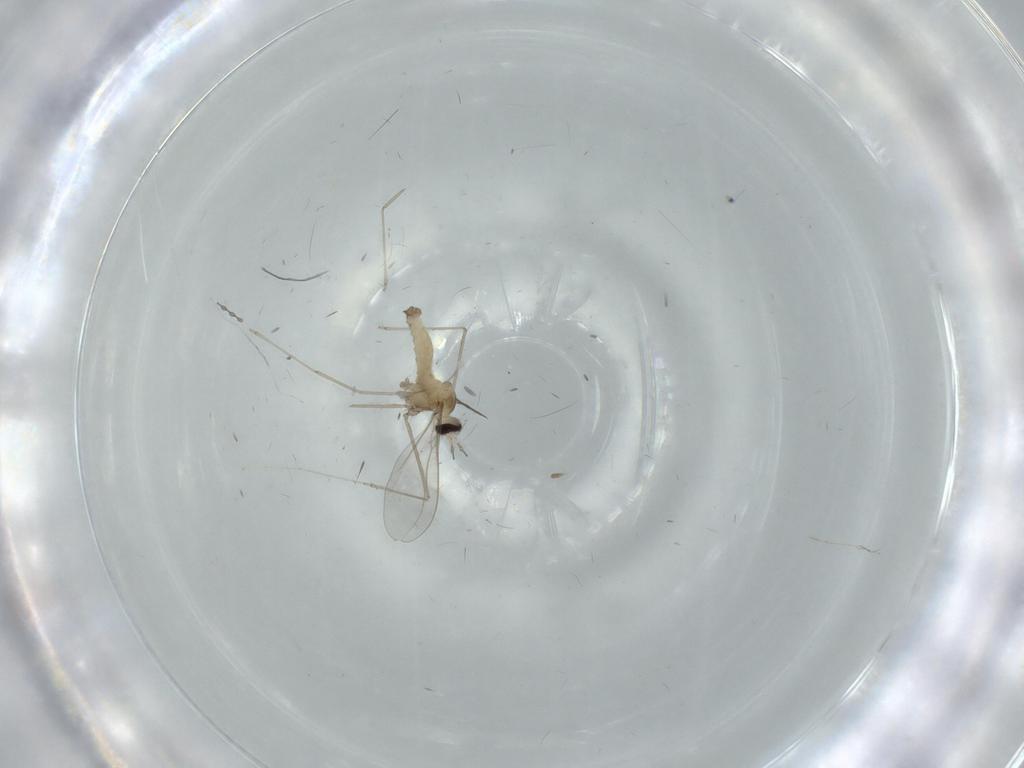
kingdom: Animalia
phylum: Arthropoda
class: Insecta
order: Diptera
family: Cecidomyiidae
